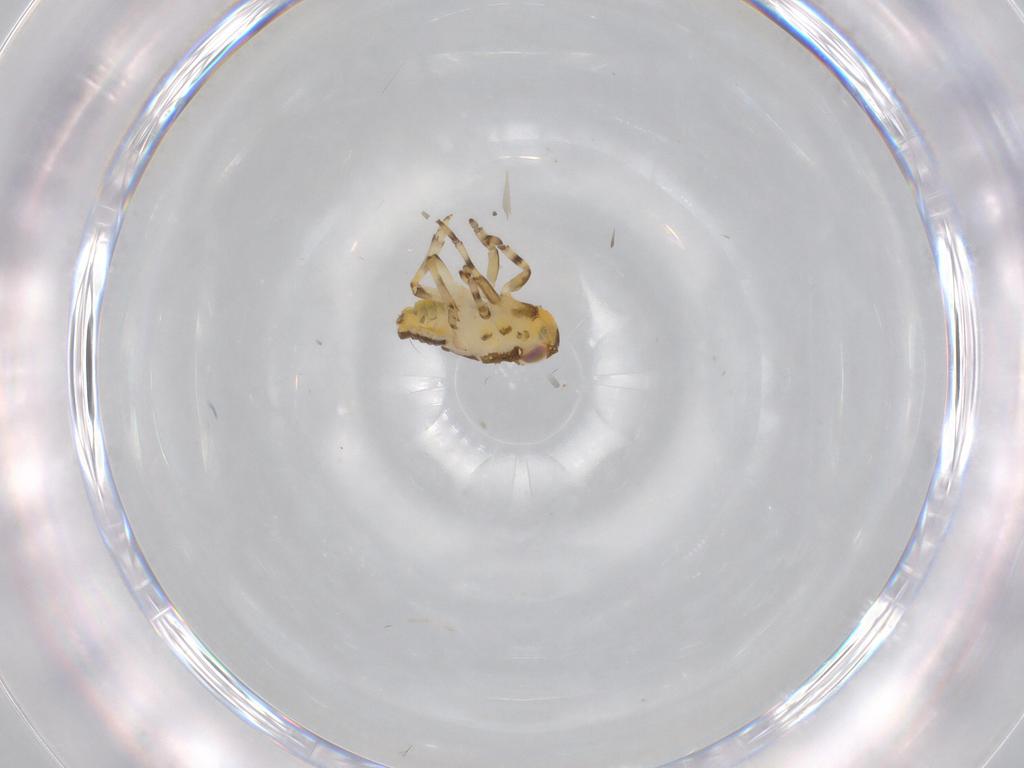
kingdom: Animalia
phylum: Arthropoda
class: Insecta
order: Hemiptera
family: Issidae
